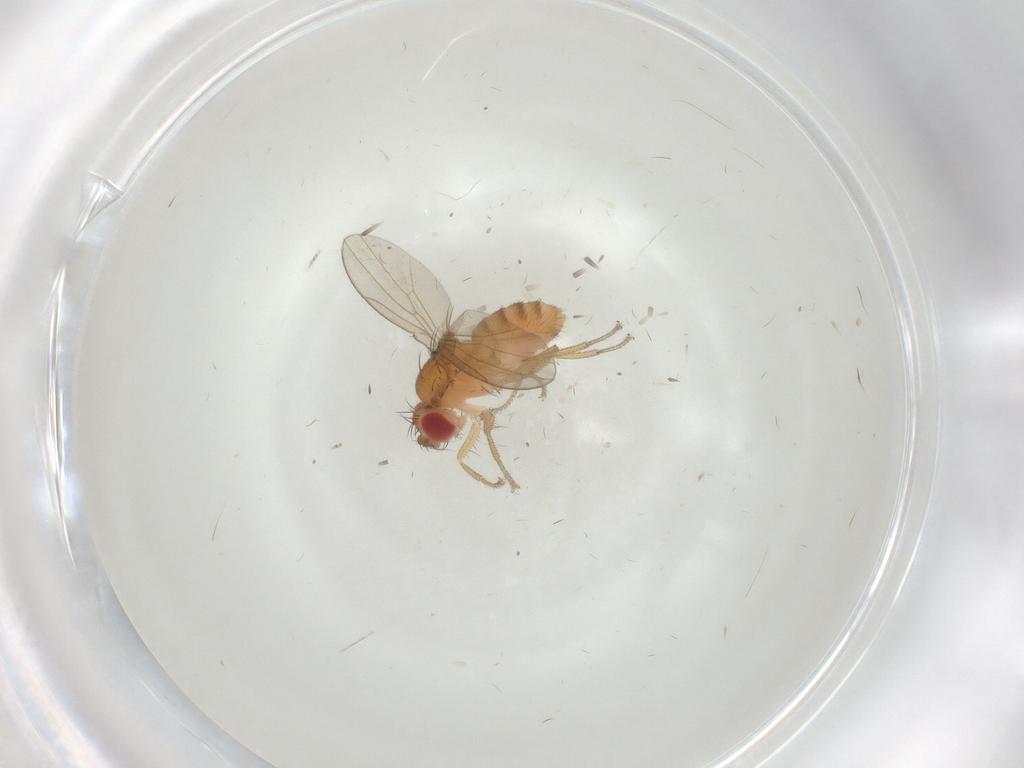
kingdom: Animalia
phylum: Arthropoda
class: Insecta
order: Diptera
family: Drosophilidae
